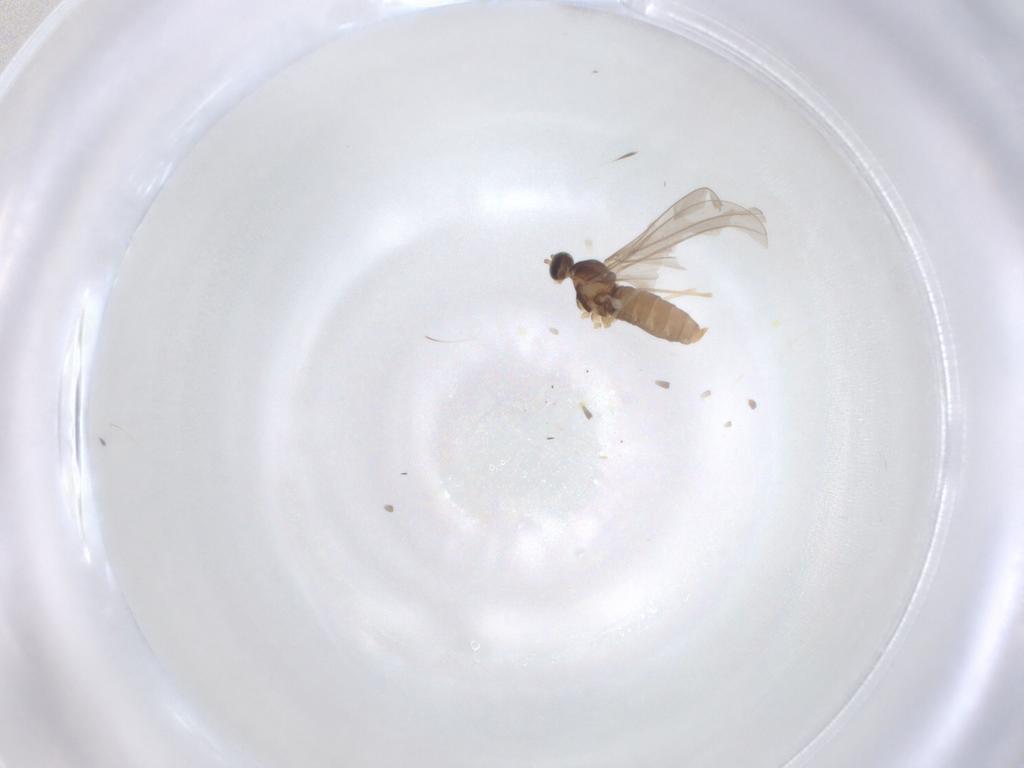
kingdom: Animalia
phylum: Arthropoda
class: Insecta
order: Diptera
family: Cecidomyiidae
